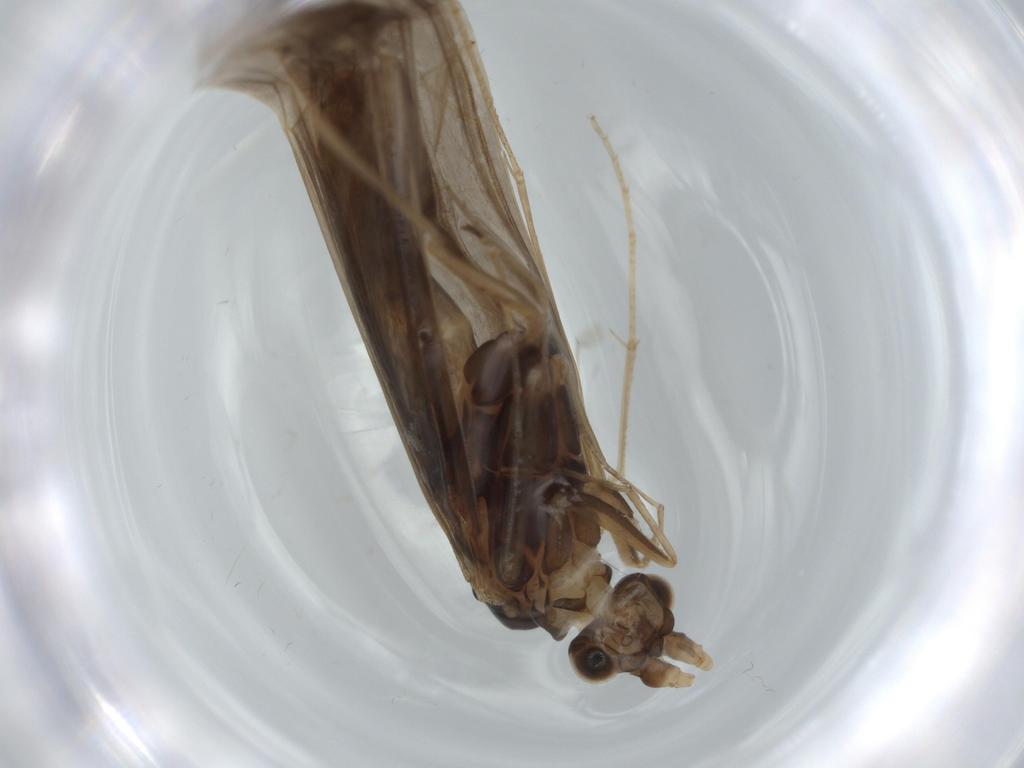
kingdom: Animalia
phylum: Arthropoda
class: Insecta
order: Trichoptera
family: Leptoceridae
